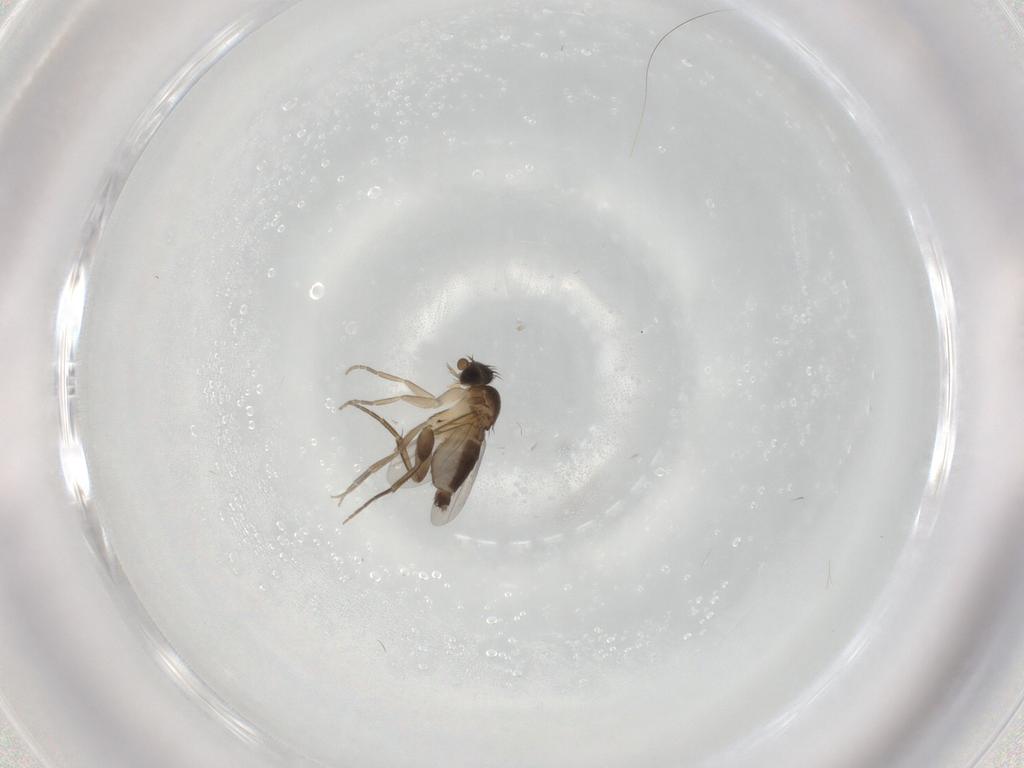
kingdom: Animalia
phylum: Arthropoda
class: Insecta
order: Diptera
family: Phoridae
